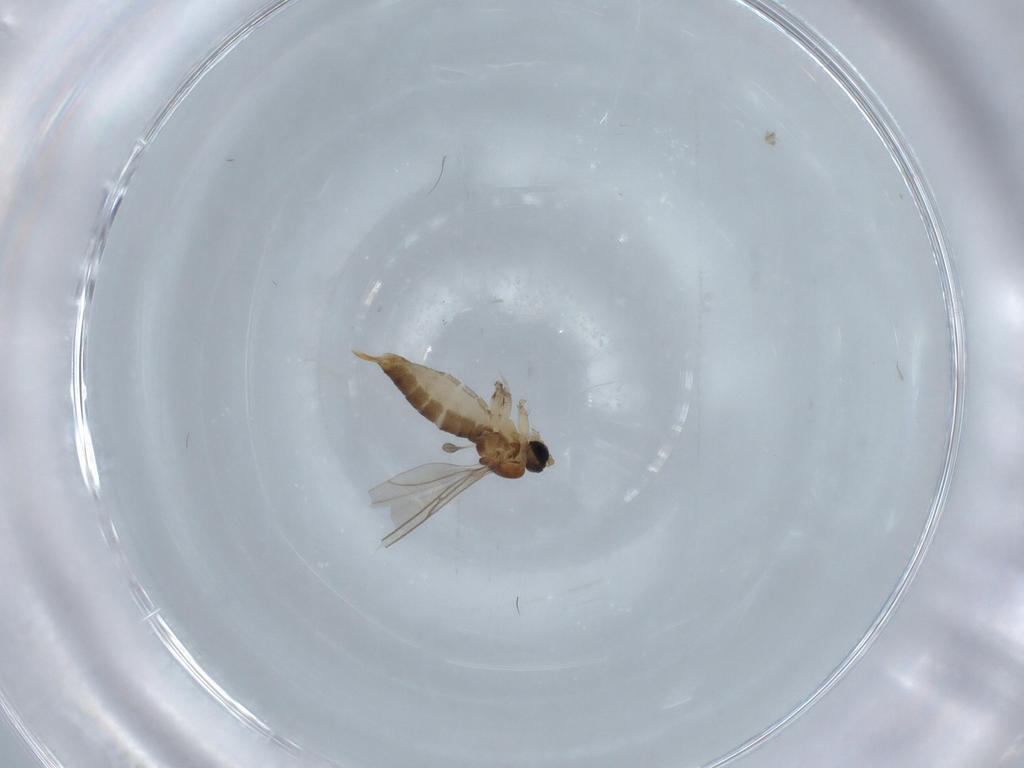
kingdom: Animalia
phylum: Arthropoda
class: Insecta
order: Diptera
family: Sciaridae
